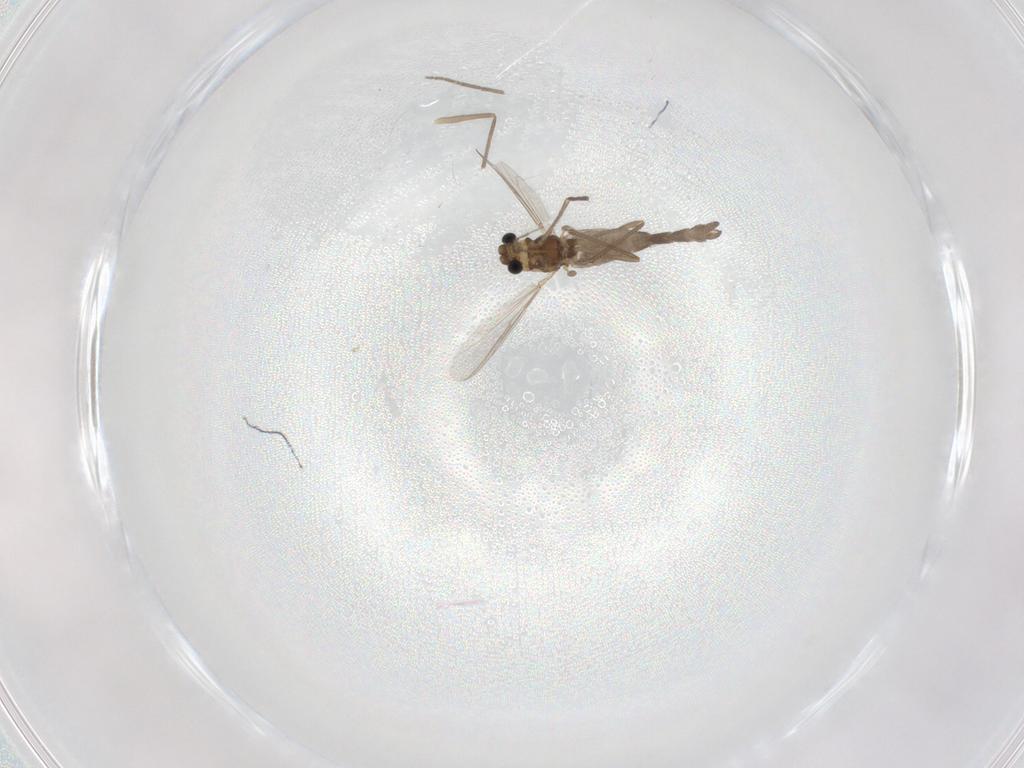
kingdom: Animalia
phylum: Arthropoda
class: Insecta
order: Diptera
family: Chironomidae
